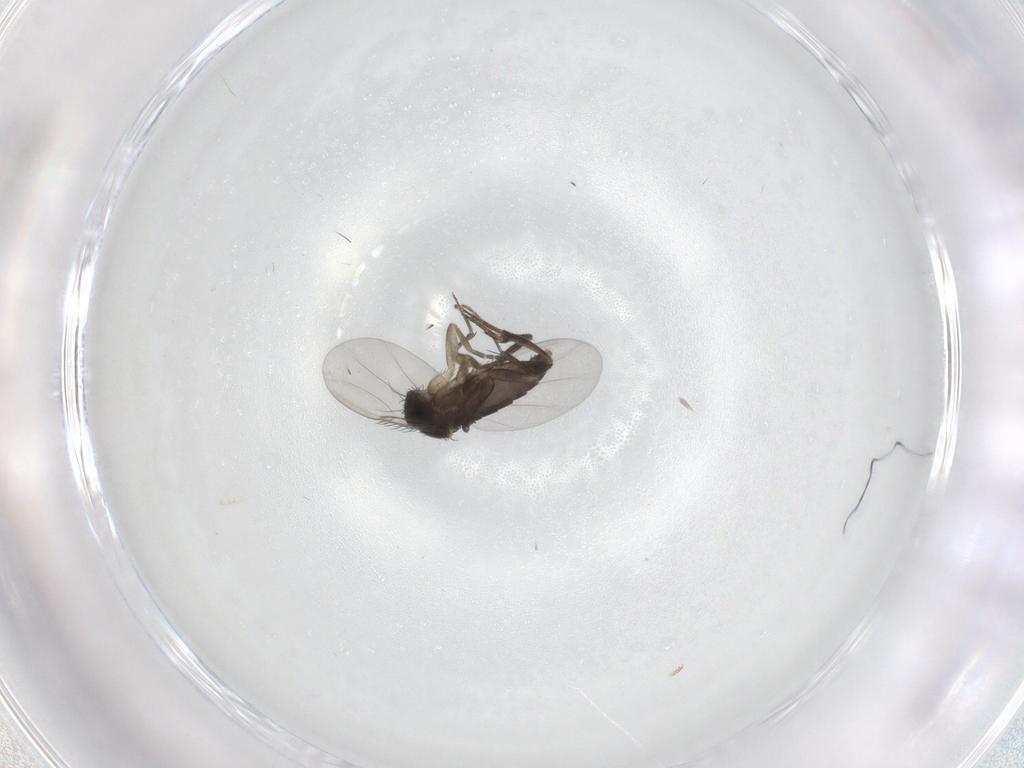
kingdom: Animalia
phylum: Arthropoda
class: Insecta
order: Diptera
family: Phoridae
